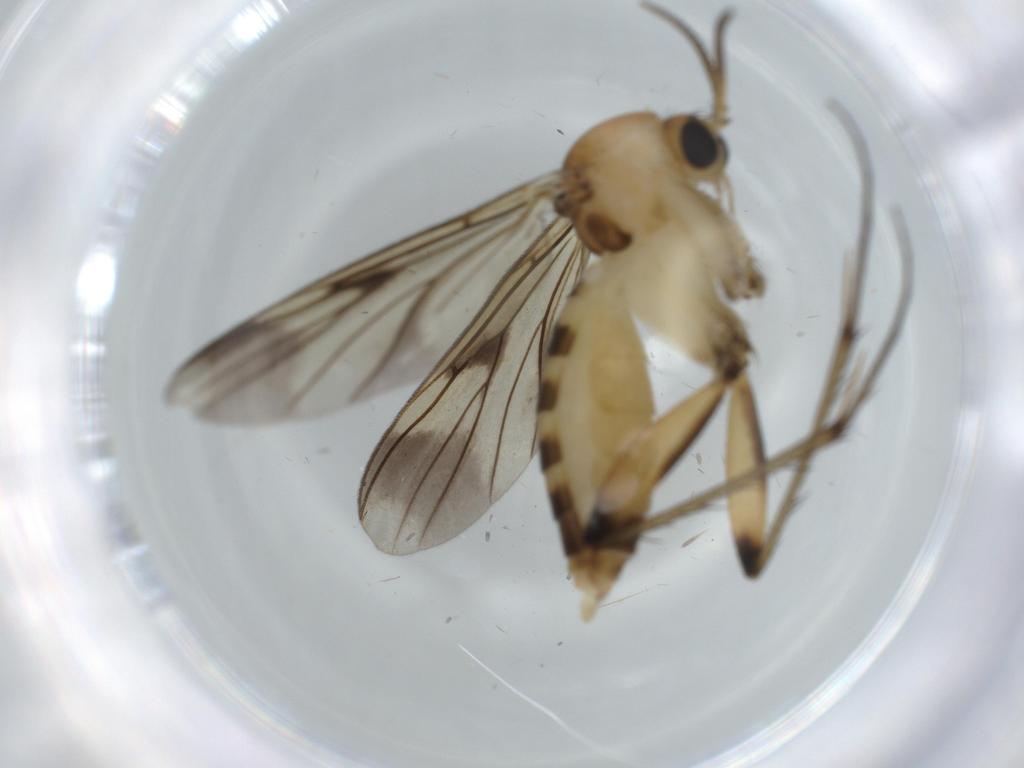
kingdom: Animalia
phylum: Arthropoda
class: Insecta
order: Diptera
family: Mycetophilidae
